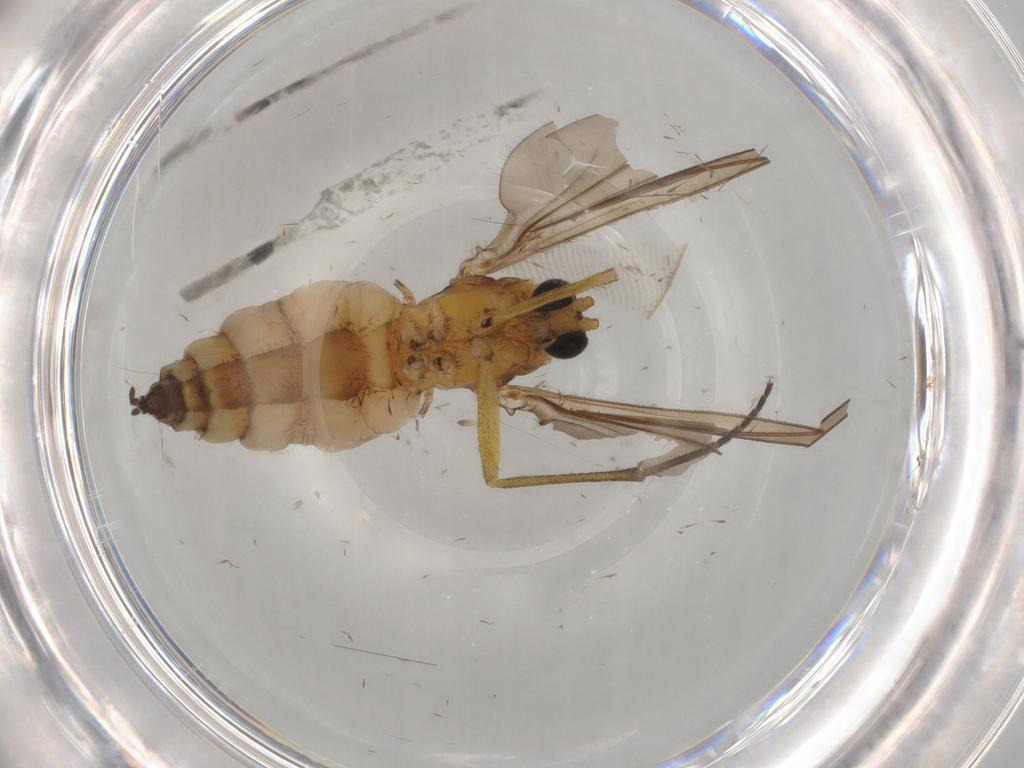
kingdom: Animalia
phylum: Arthropoda
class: Insecta
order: Diptera
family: Sciaridae
